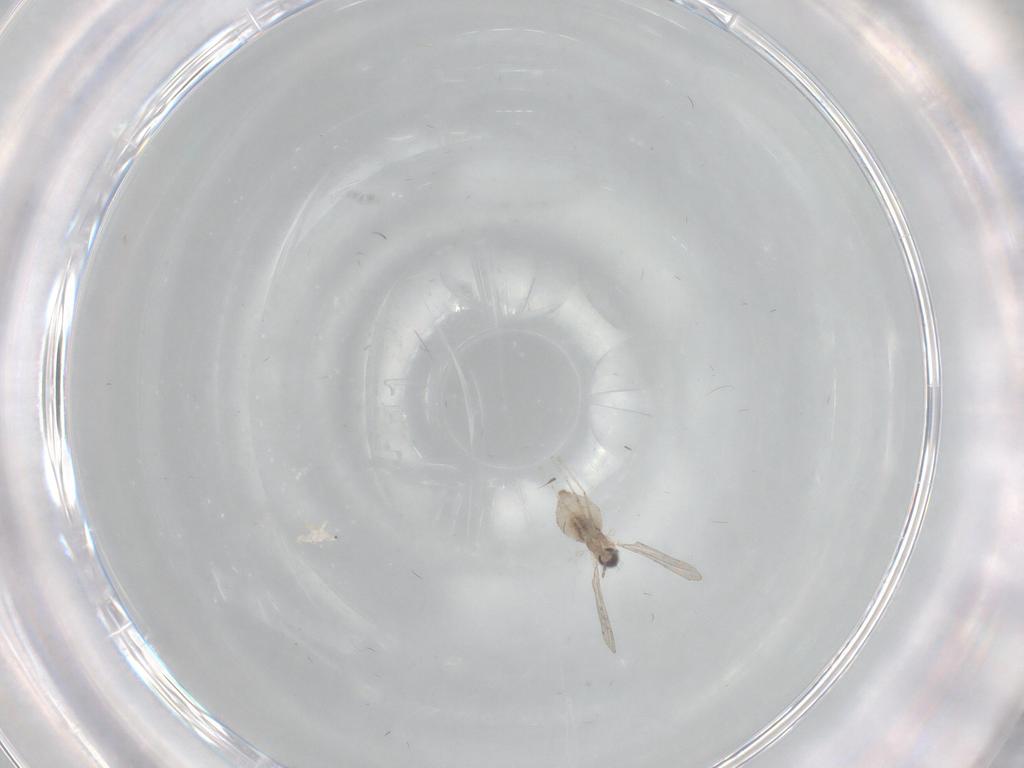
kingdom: Animalia
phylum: Arthropoda
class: Insecta
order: Diptera
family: Cecidomyiidae
